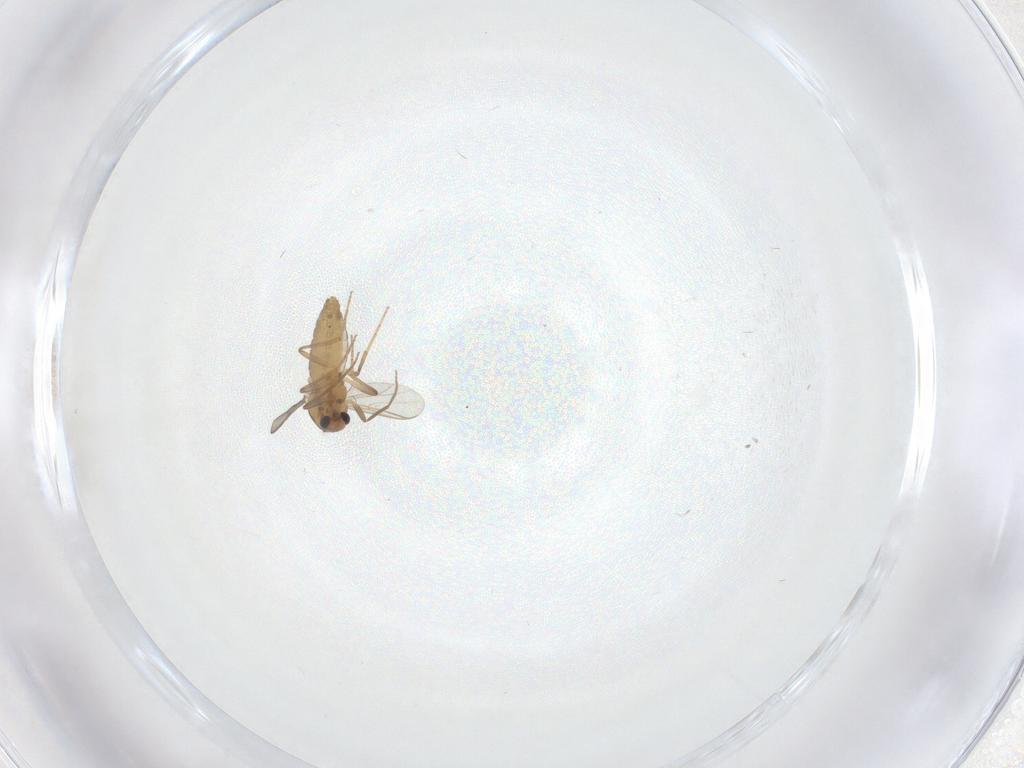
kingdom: Animalia
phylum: Arthropoda
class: Insecta
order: Diptera
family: Chironomidae
